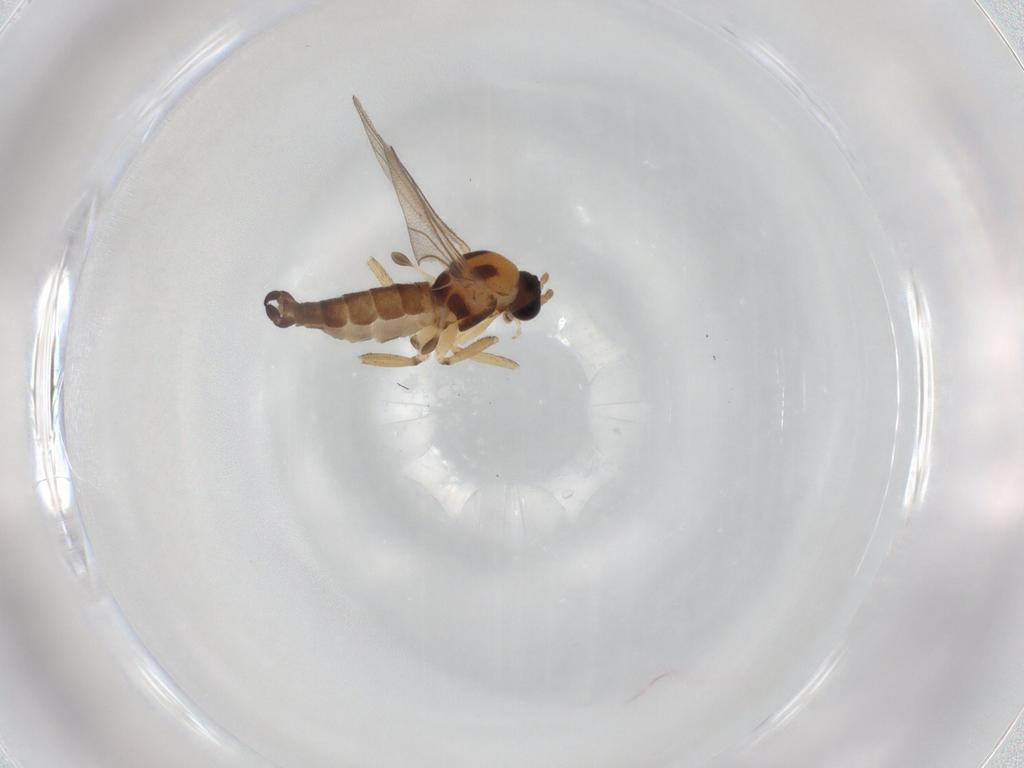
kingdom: Animalia
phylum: Arthropoda
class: Insecta
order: Diptera
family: Sciaridae
